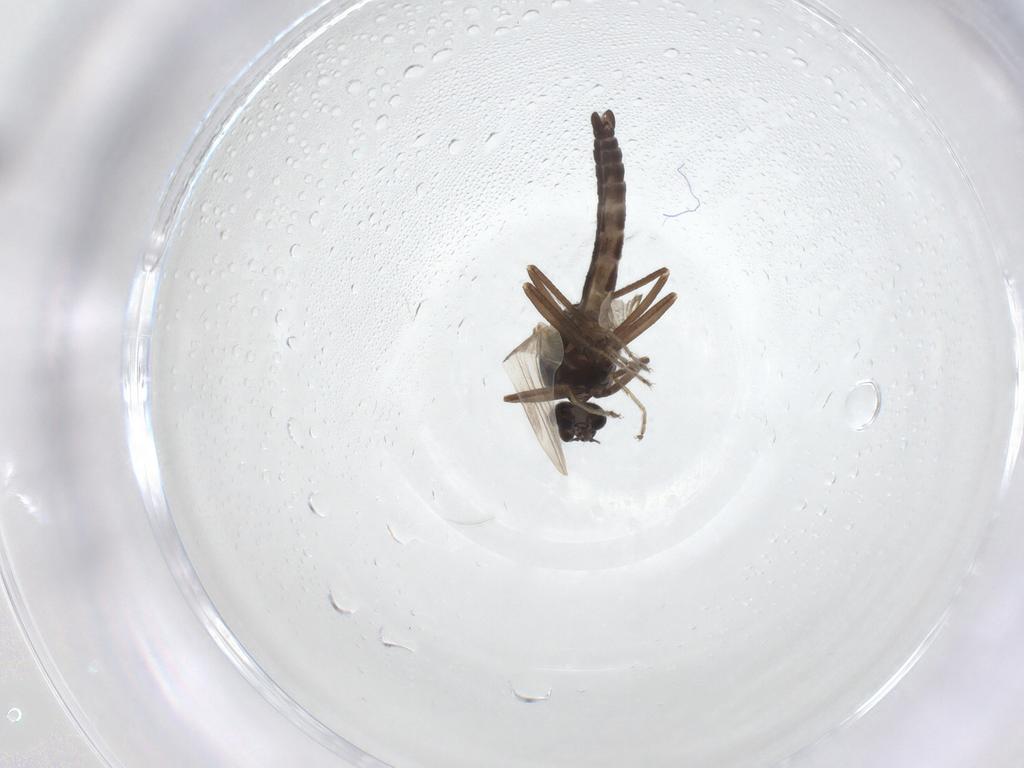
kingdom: Animalia
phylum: Arthropoda
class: Insecta
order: Diptera
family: Ceratopogonidae
